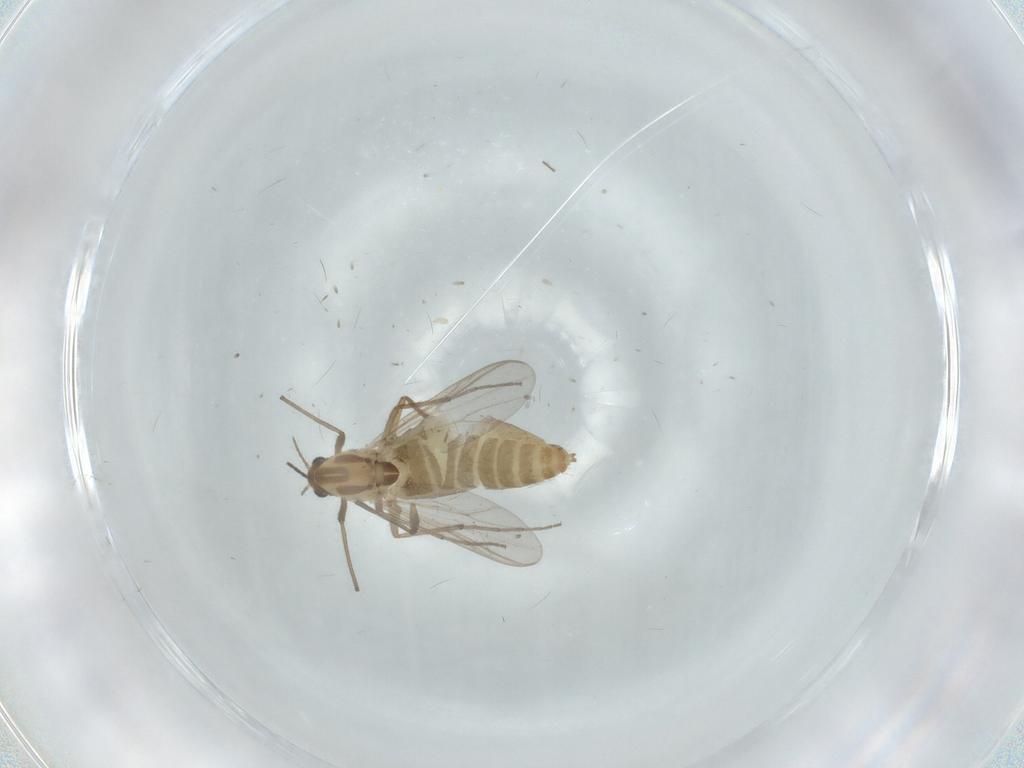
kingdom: Animalia
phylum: Arthropoda
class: Insecta
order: Diptera
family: Chironomidae
